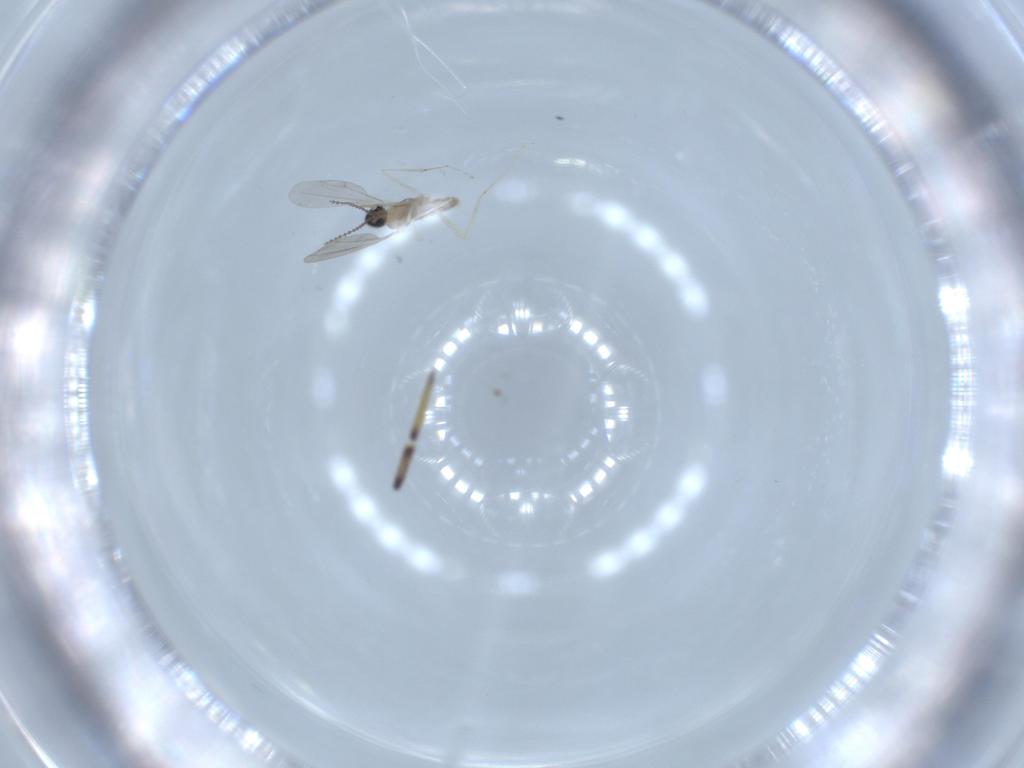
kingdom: Animalia
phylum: Arthropoda
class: Insecta
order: Diptera
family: Cecidomyiidae
